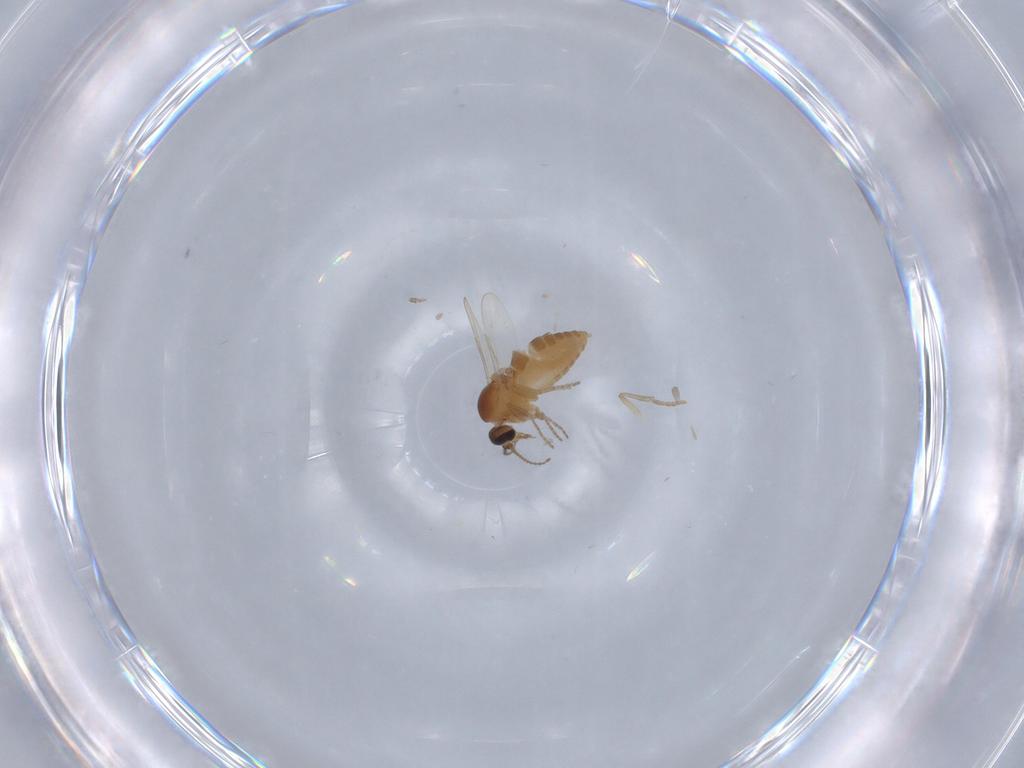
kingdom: Animalia
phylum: Arthropoda
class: Insecta
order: Diptera
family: Ceratopogonidae
